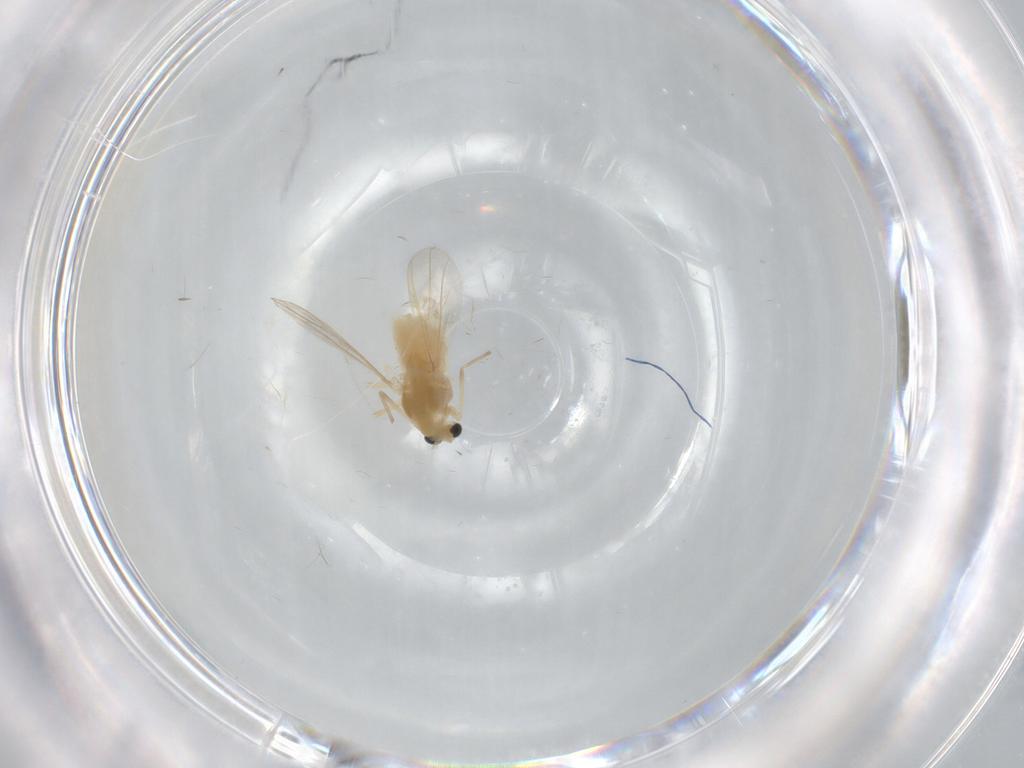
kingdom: Animalia
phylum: Arthropoda
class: Insecta
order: Diptera
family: Chironomidae
